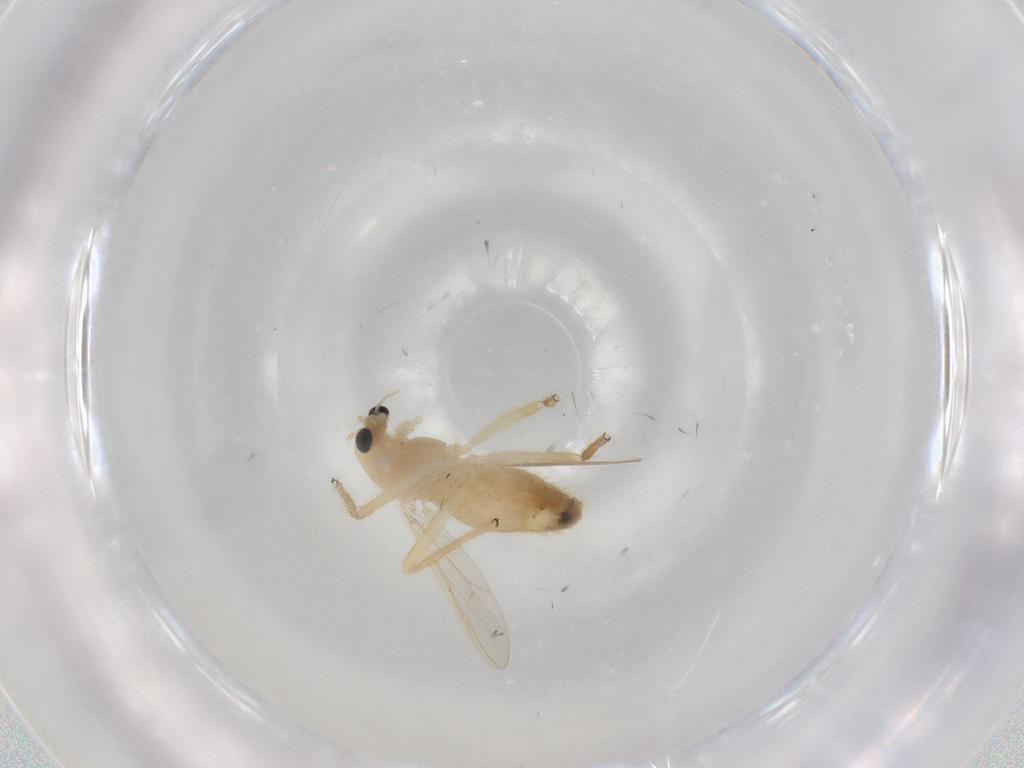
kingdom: Animalia
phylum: Arthropoda
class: Insecta
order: Diptera
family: Chironomidae
